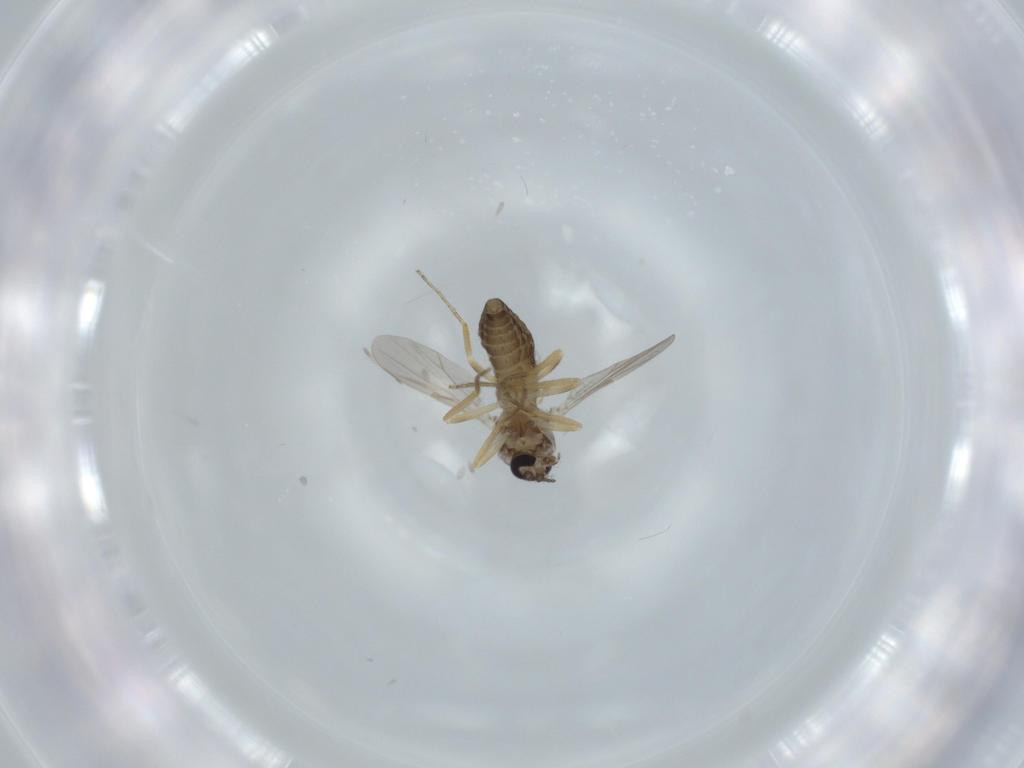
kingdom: Animalia
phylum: Arthropoda
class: Insecta
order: Diptera
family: Ceratopogonidae
